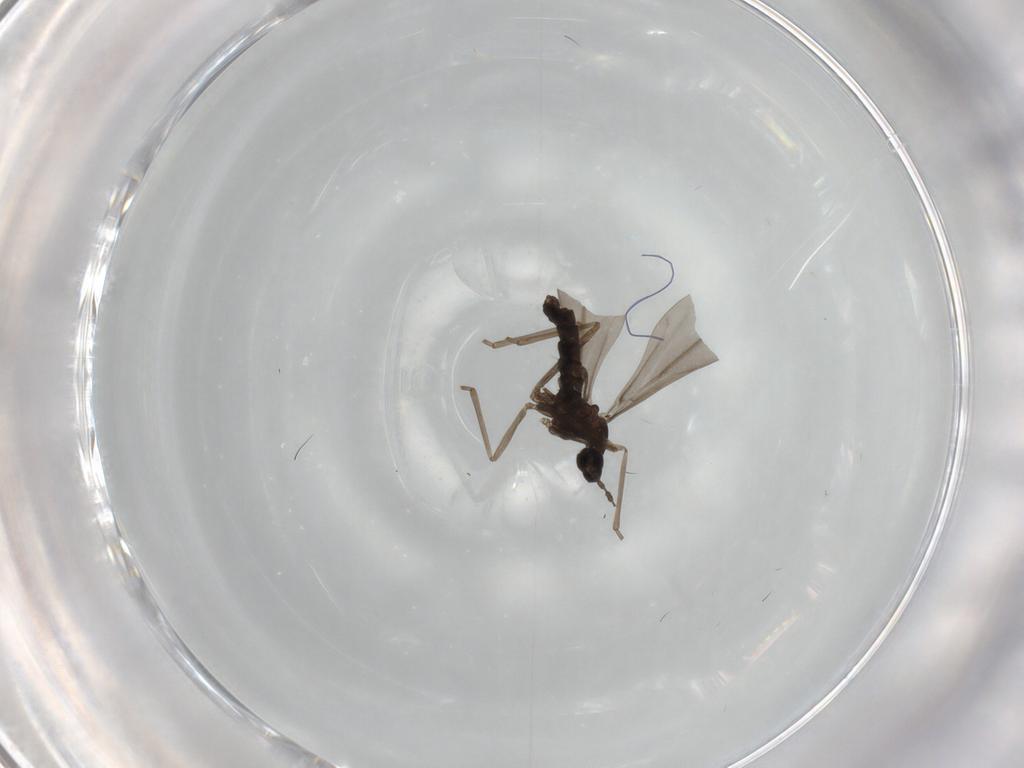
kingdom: Animalia
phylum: Arthropoda
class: Insecta
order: Diptera
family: Cecidomyiidae
